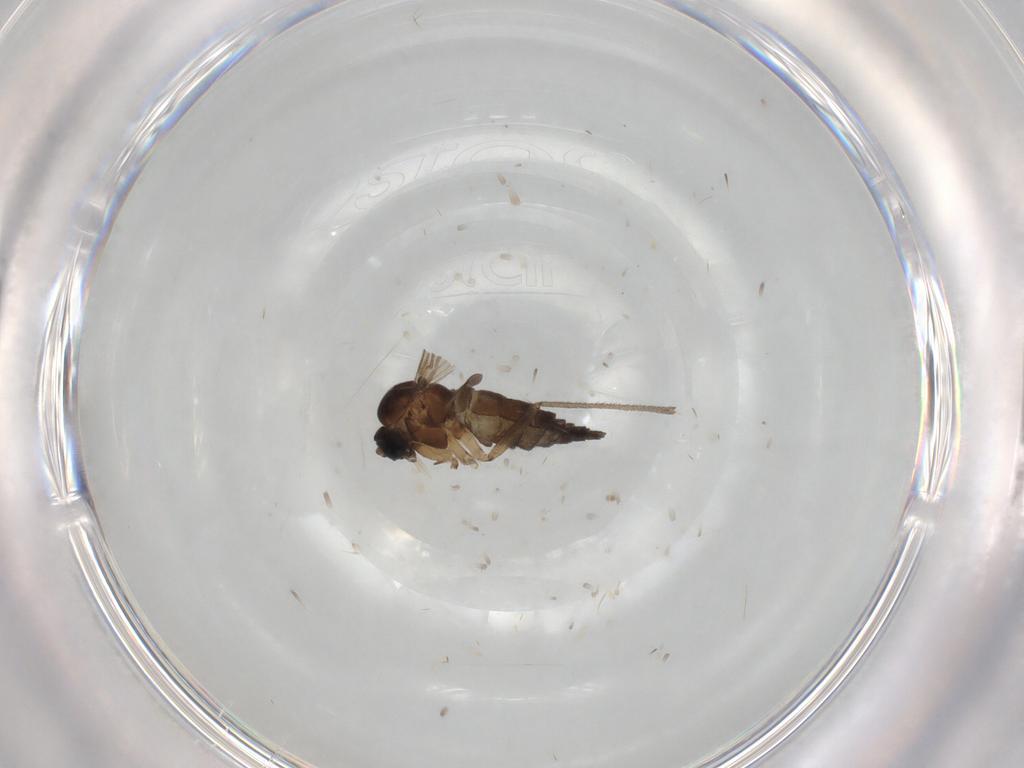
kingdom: Animalia
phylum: Arthropoda
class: Insecta
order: Diptera
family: Sciaridae
